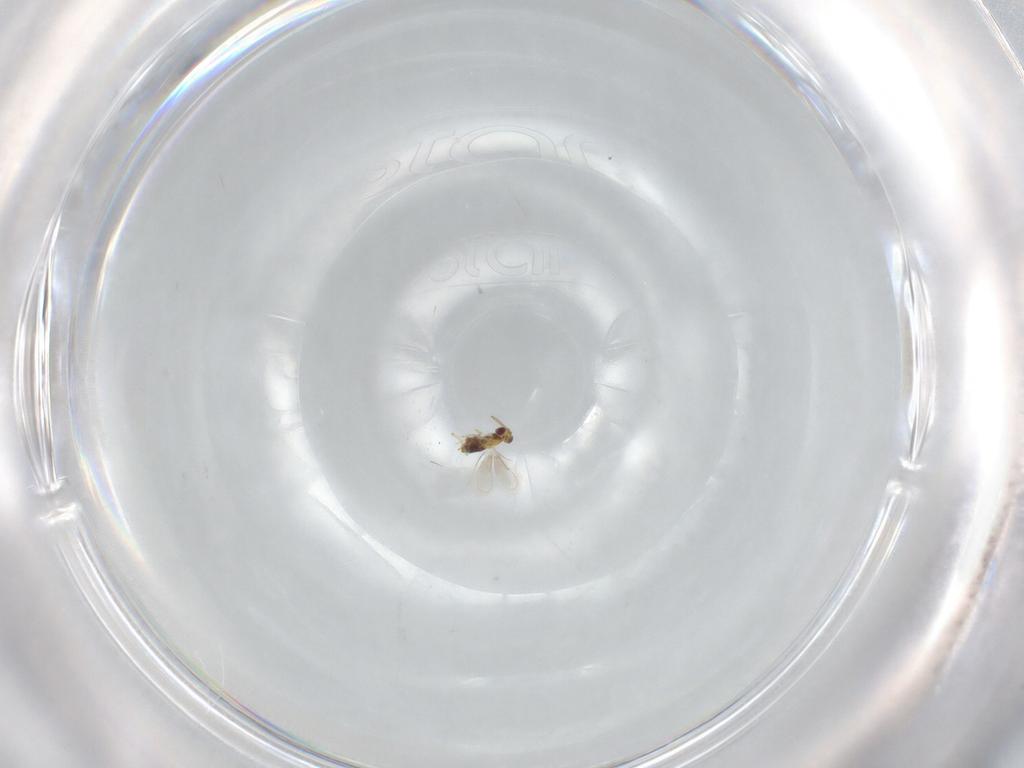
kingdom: Animalia
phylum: Arthropoda
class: Insecta
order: Hymenoptera
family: Aphelinidae
